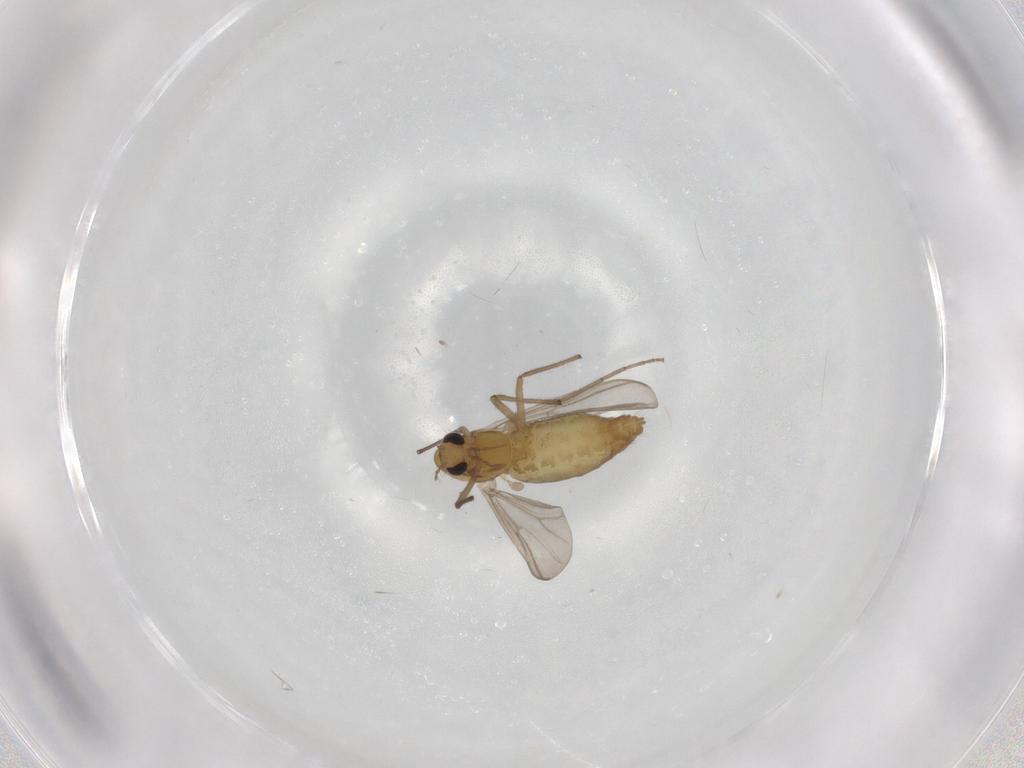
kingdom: Animalia
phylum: Arthropoda
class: Insecta
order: Diptera
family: Chironomidae
